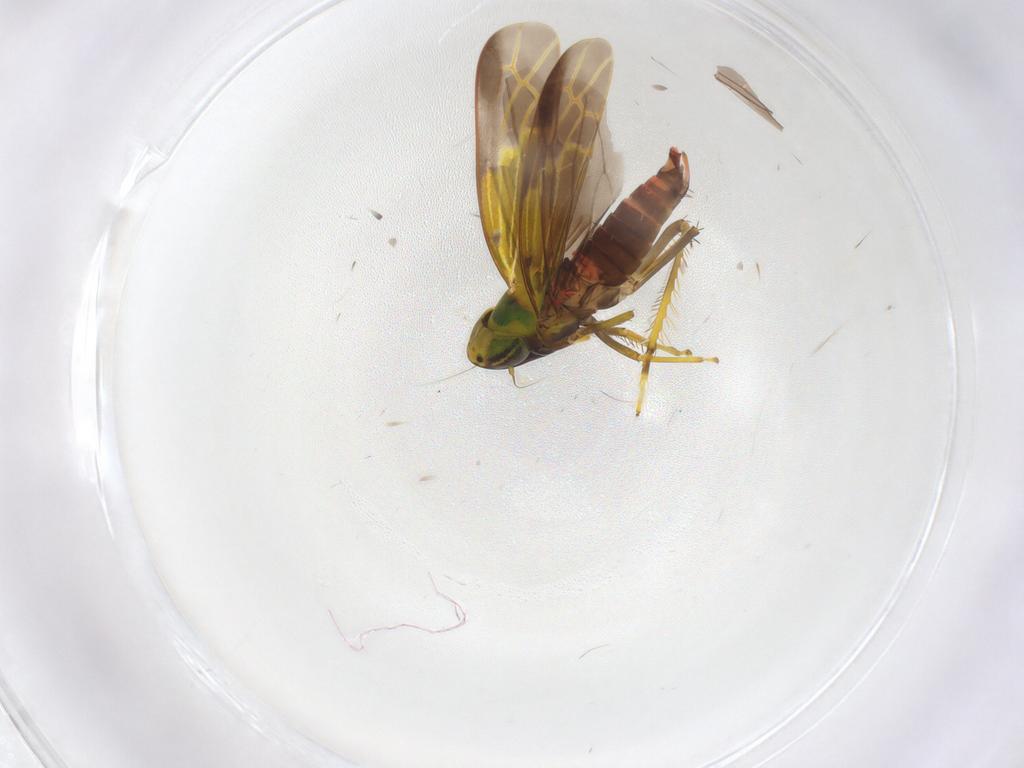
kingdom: Animalia
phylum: Arthropoda
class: Insecta
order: Hemiptera
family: Cicadellidae
